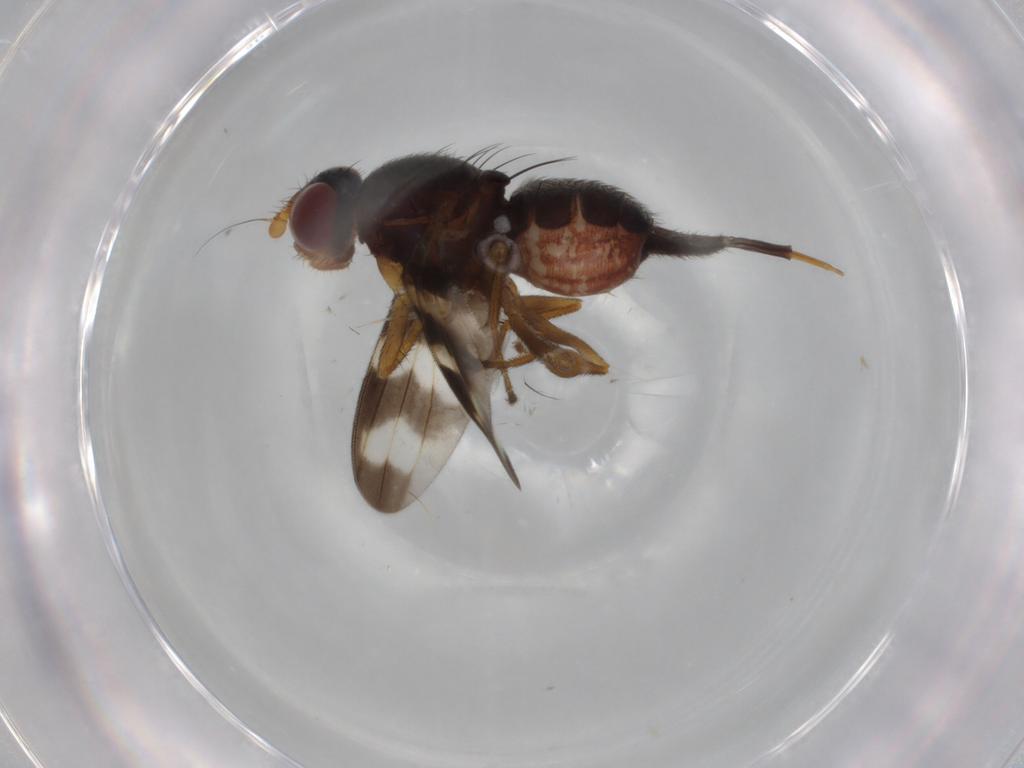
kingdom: Animalia
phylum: Arthropoda
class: Insecta
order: Diptera
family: Ulidiidae
